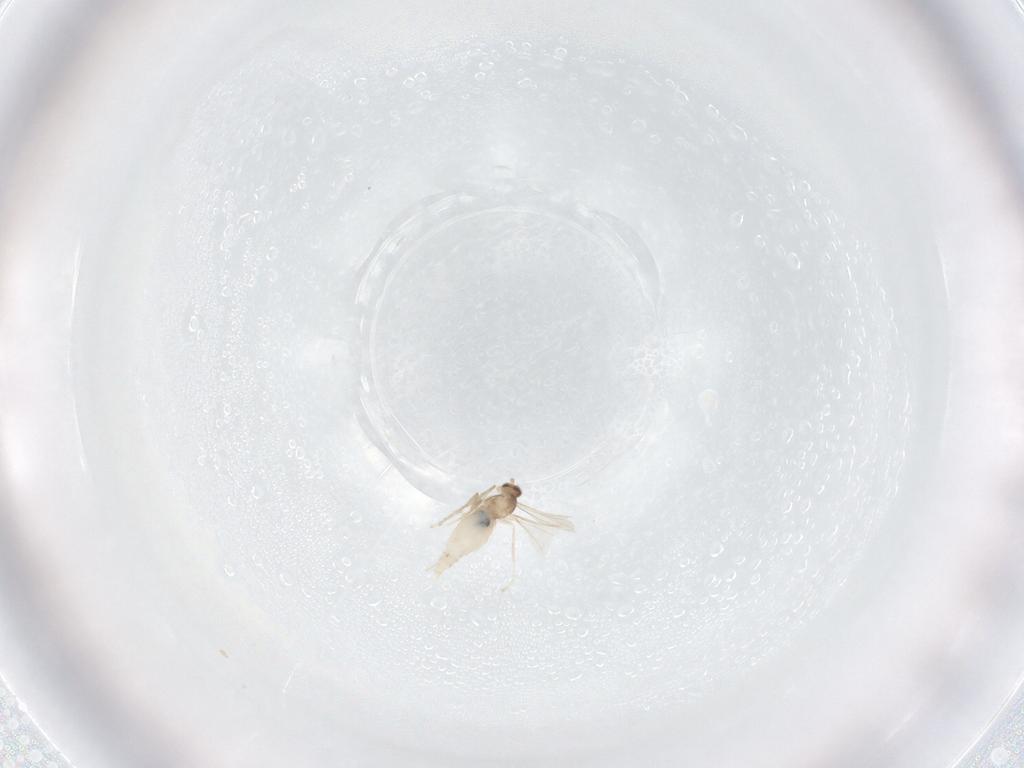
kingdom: Animalia
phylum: Arthropoda
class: Insecta
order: Diptera
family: Cecidomyiidae
